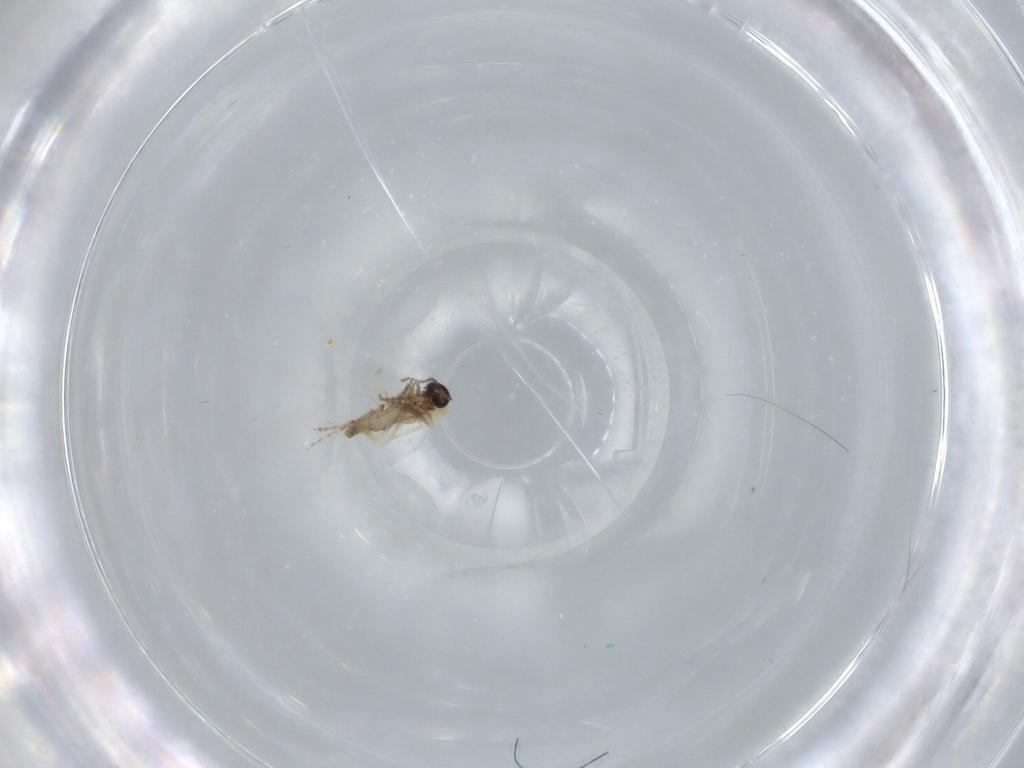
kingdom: Animalia
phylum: Arthropoda
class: Insecta
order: Diptera
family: Ceratopogonidae
